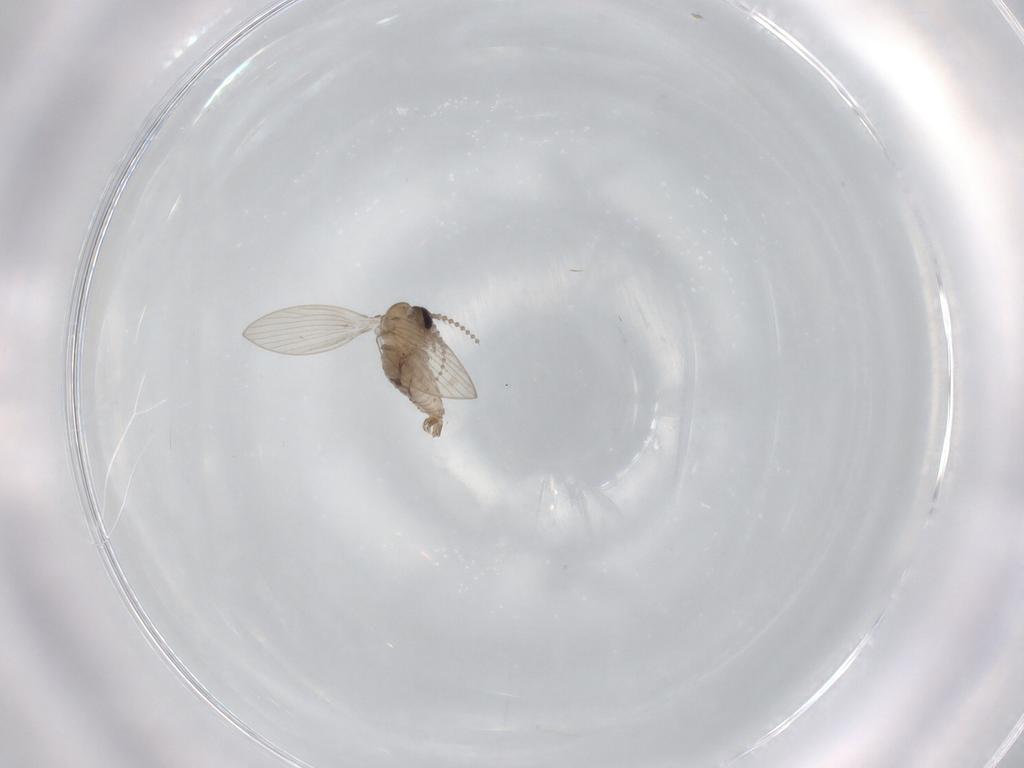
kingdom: Animalia
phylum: Arthropoda
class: Insecta
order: Diptera
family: Psychodidae
